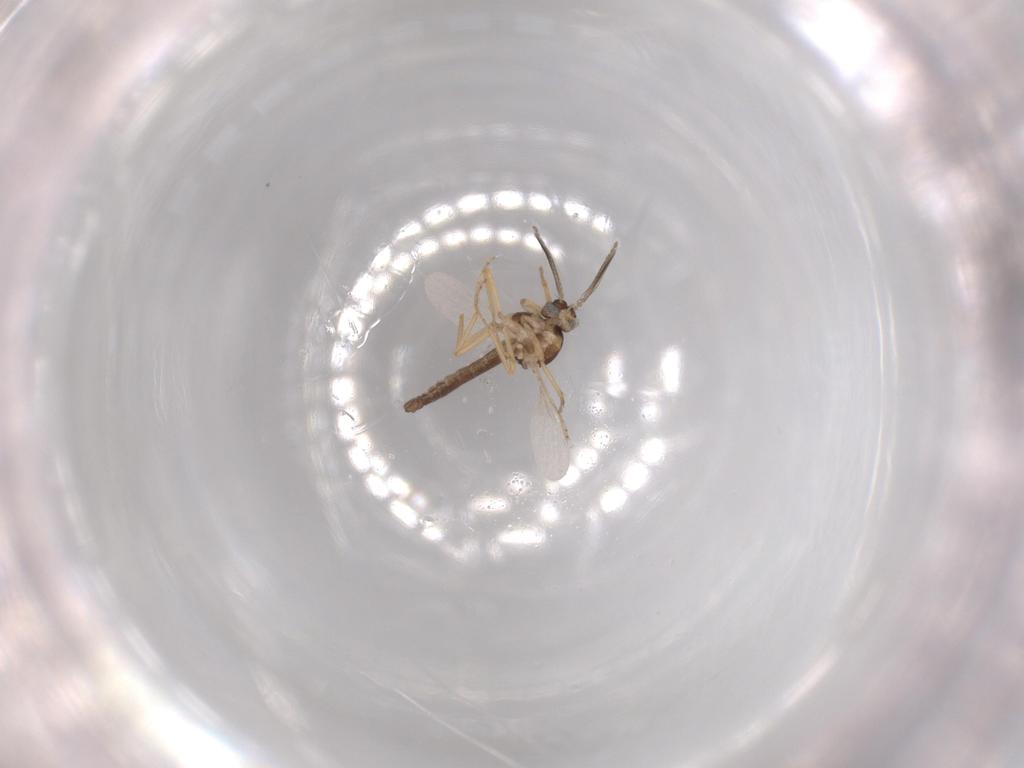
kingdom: Animalia
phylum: Arthropoda
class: Insecta
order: Diptera
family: Ceratopogonidae
